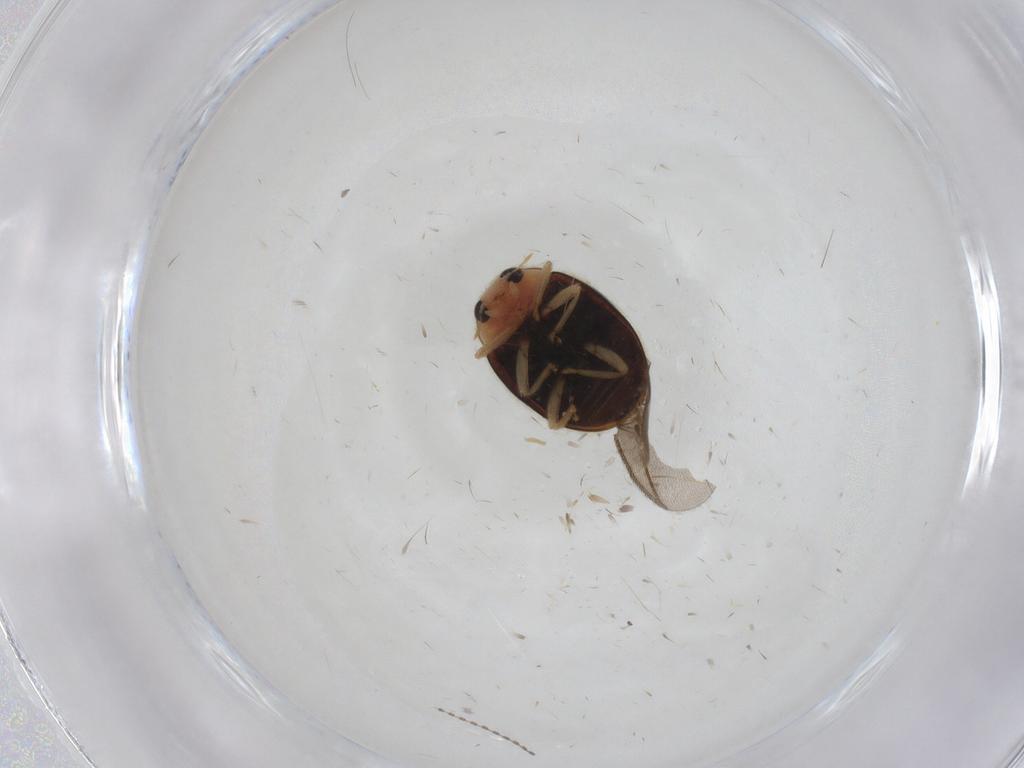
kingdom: Animalia
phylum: Arthropoda
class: Insecta
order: Coleoptera
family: Coccinellidae
